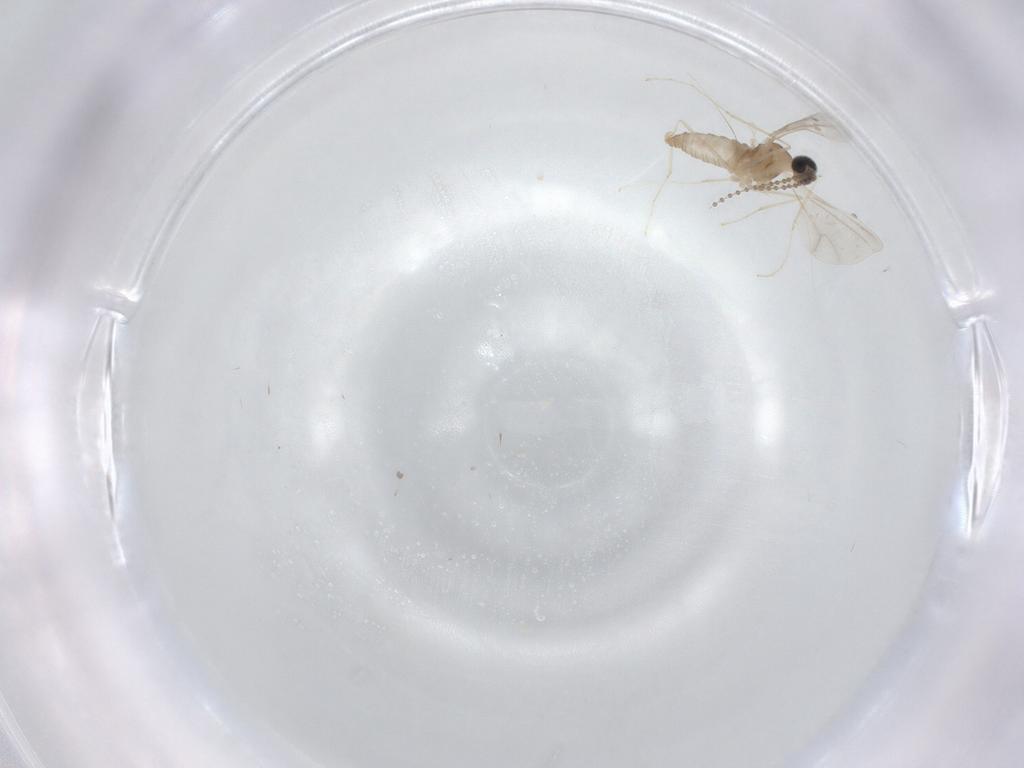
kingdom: Animalia
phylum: Arthropoda
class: Insecta
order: Diptera
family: Cecidomyiidae
